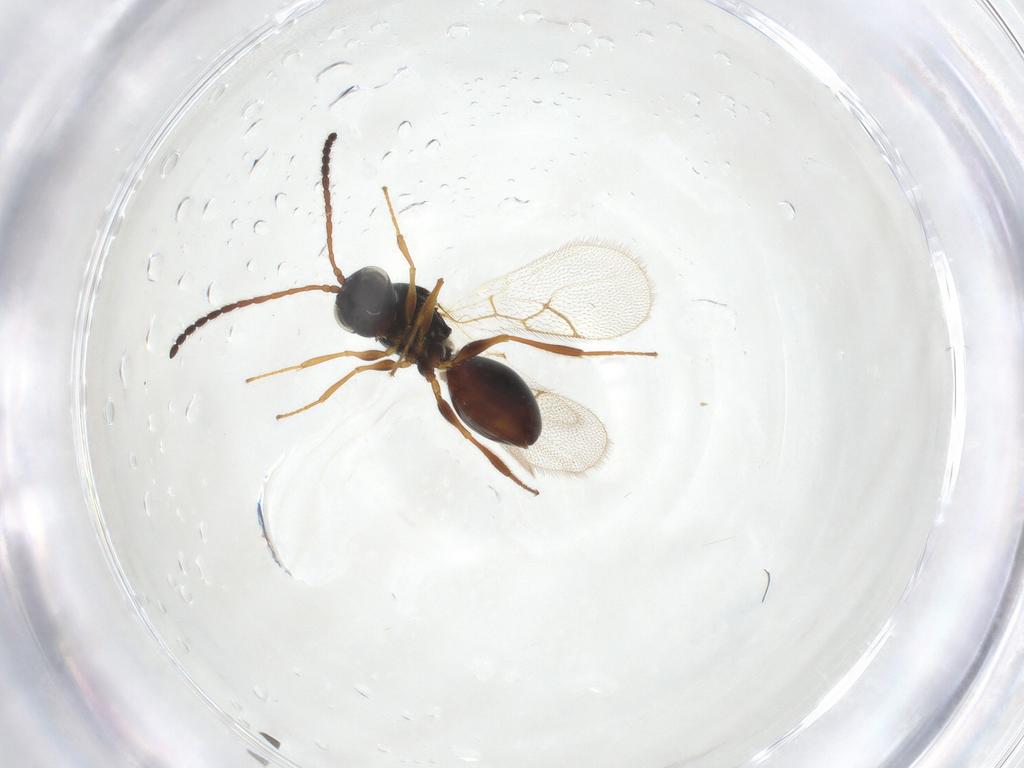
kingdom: Animalia
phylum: Arthropoda
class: Insecta
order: Hymenoptera
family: Figitidae
